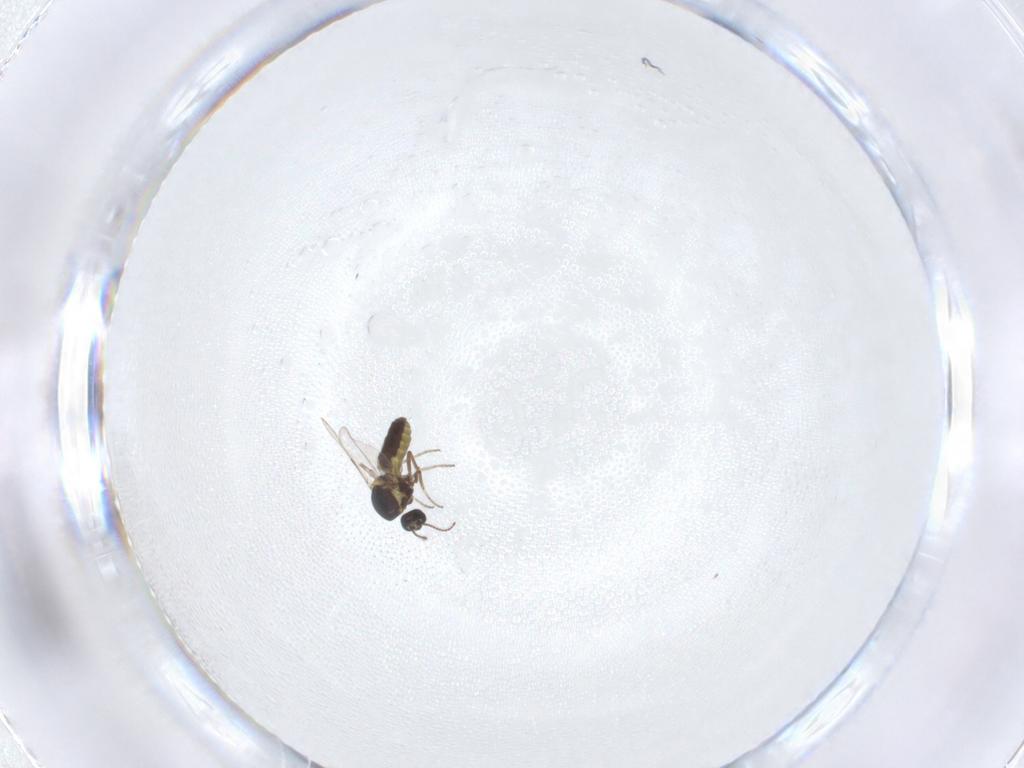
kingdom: Animalia
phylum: Arthropoda
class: Insecta
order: Diptera
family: Ceratopogonidae
